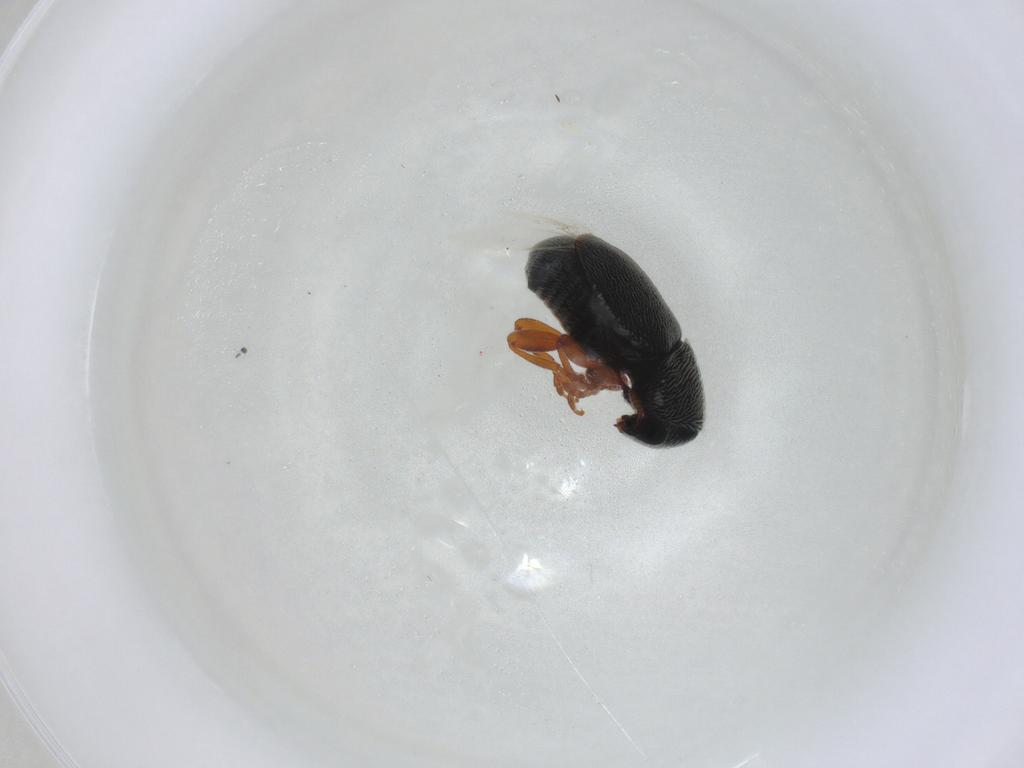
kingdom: Animalia
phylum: Arthropoda
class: Insecta
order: Coleoptera
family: Anthribidae
